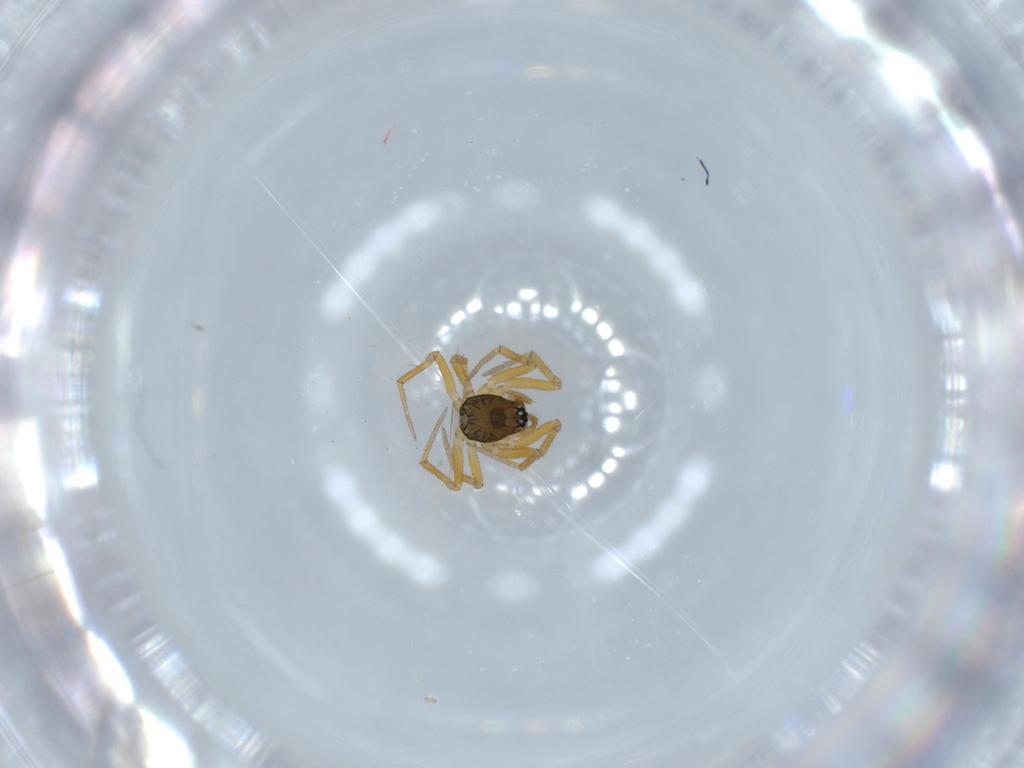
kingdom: Animalia
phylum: Arthropoda
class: Arachnida
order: Araneae
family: Linyphiidae
